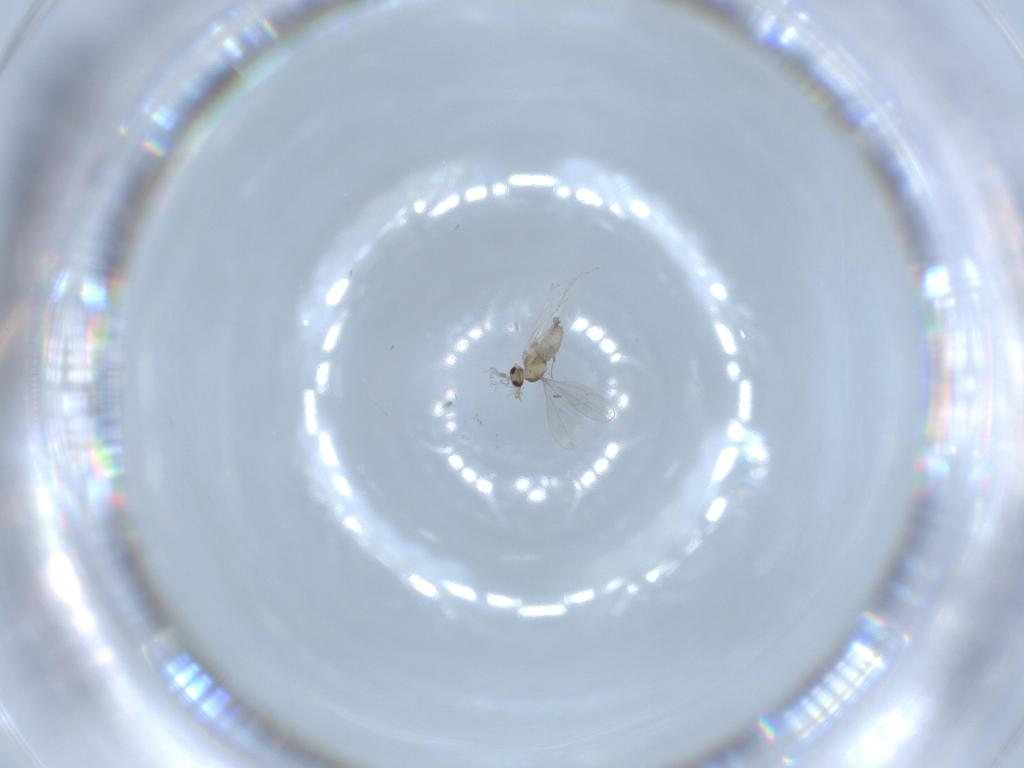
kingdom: Animalia
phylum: Arthropoda
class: Insecta
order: Diptera
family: Cecidomyiidae
